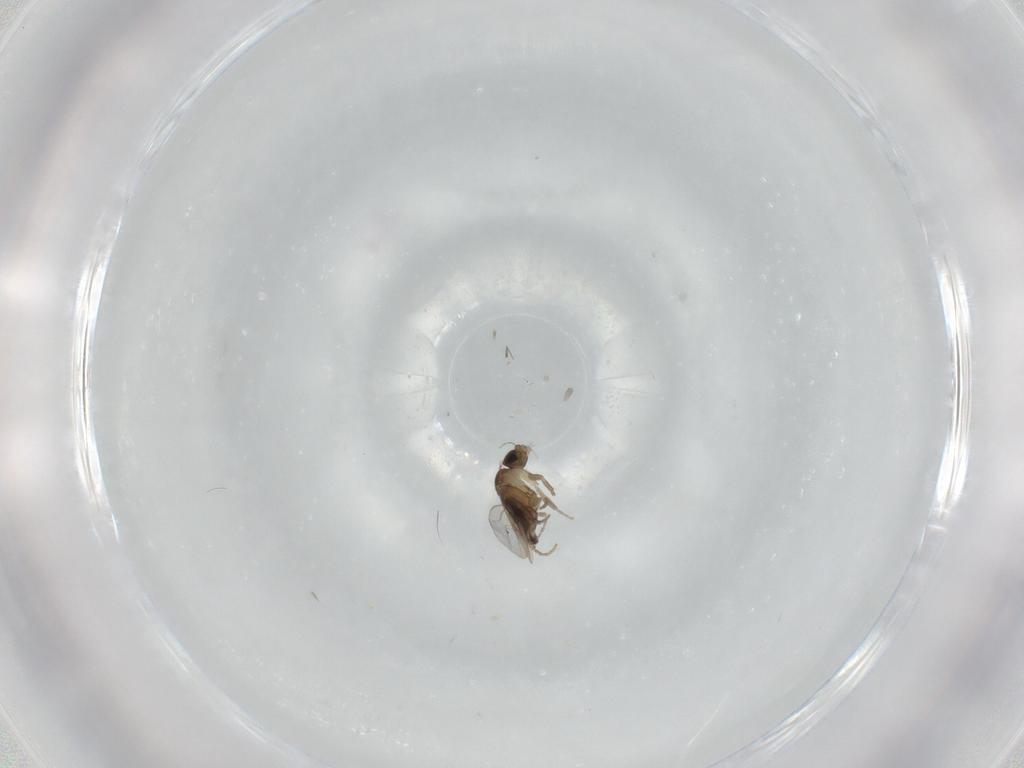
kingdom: Animalia
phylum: Arthropoda
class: Insecta
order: Diptera
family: Phoridae
